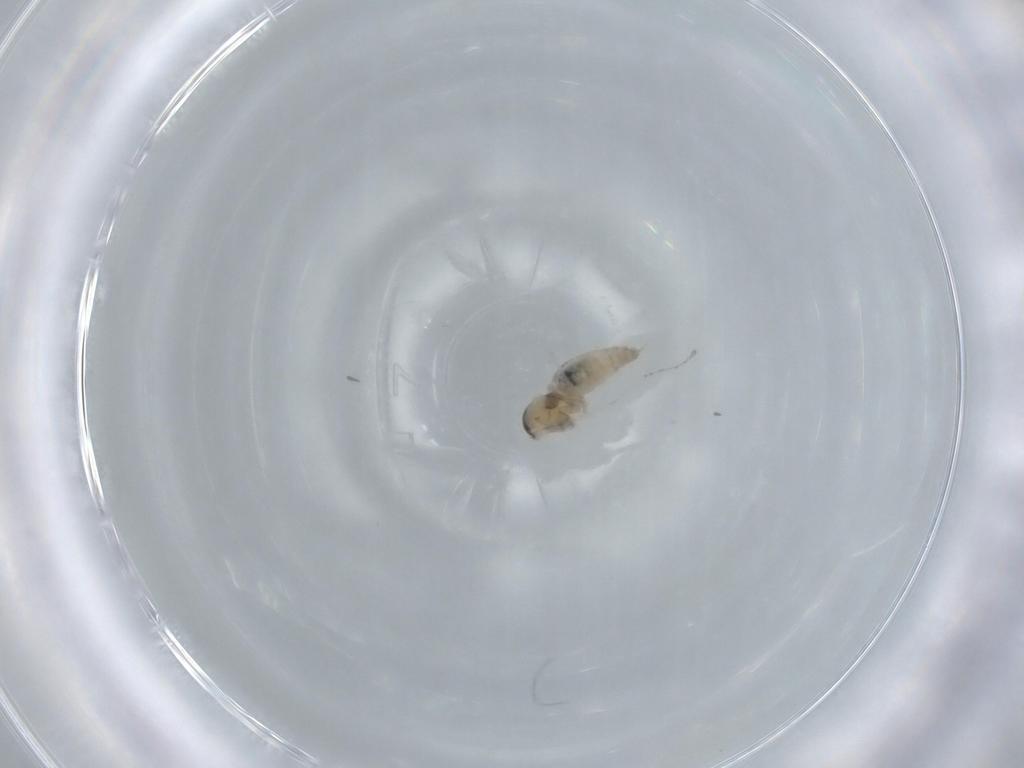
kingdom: Animalia
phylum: Arthropoda
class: Insecta
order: Diptera
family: Cecidomyiidae
